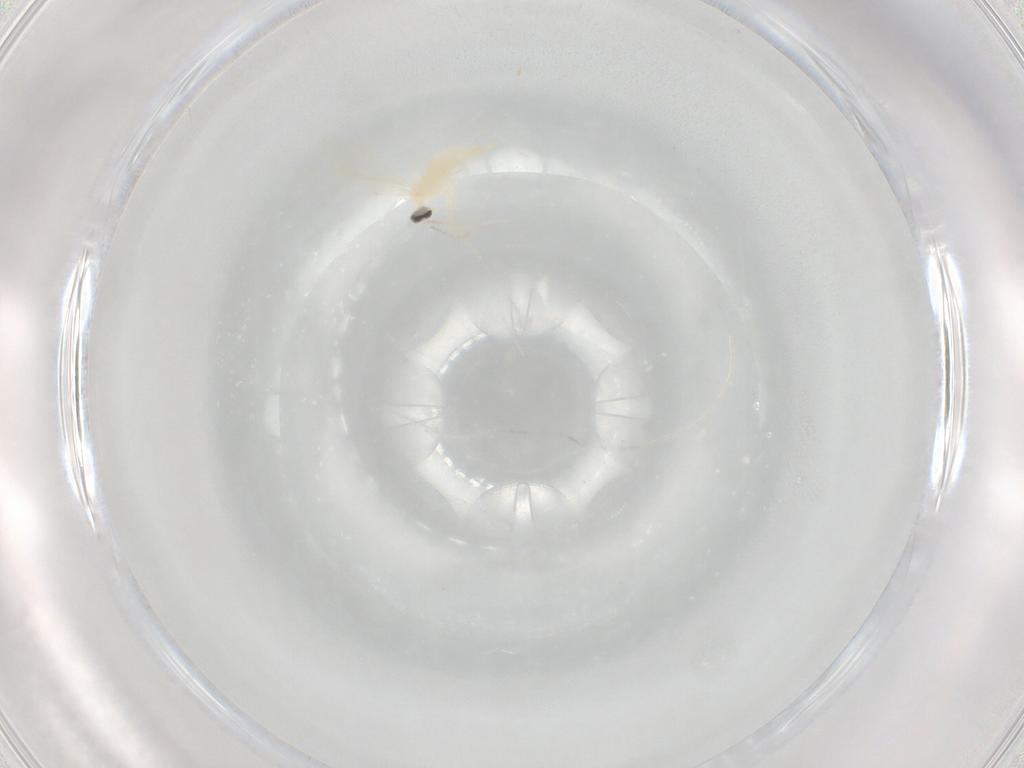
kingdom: Animalia
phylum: Arthropoda
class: Insecta
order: Diptera
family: Cecidomyiidae
